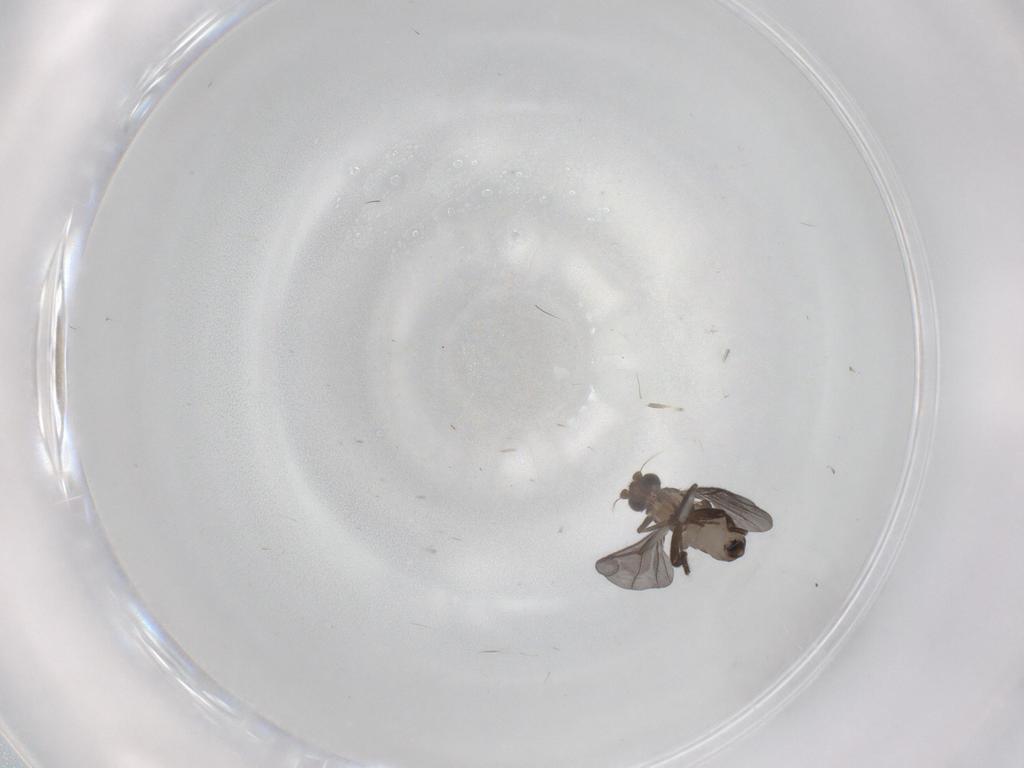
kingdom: Animalia
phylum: Arthropoda
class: Insecta
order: Diptera
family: Phoridae
